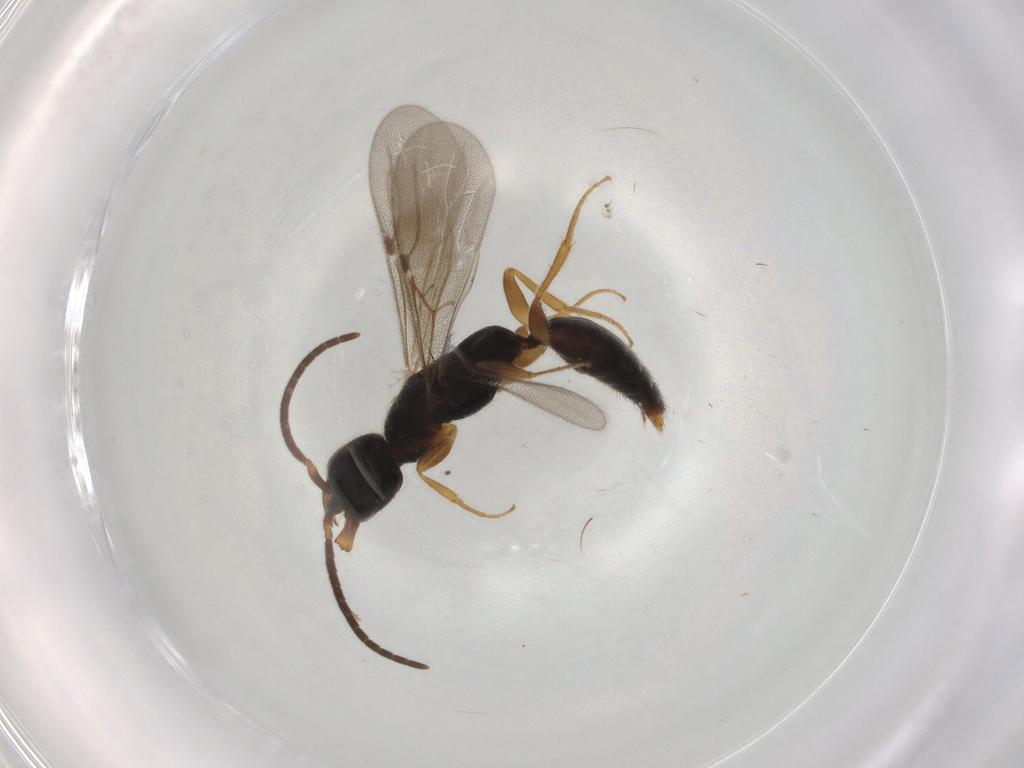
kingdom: Animalia
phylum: Arthropoda
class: Insecta
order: Hymenoptera
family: Bethylidae
